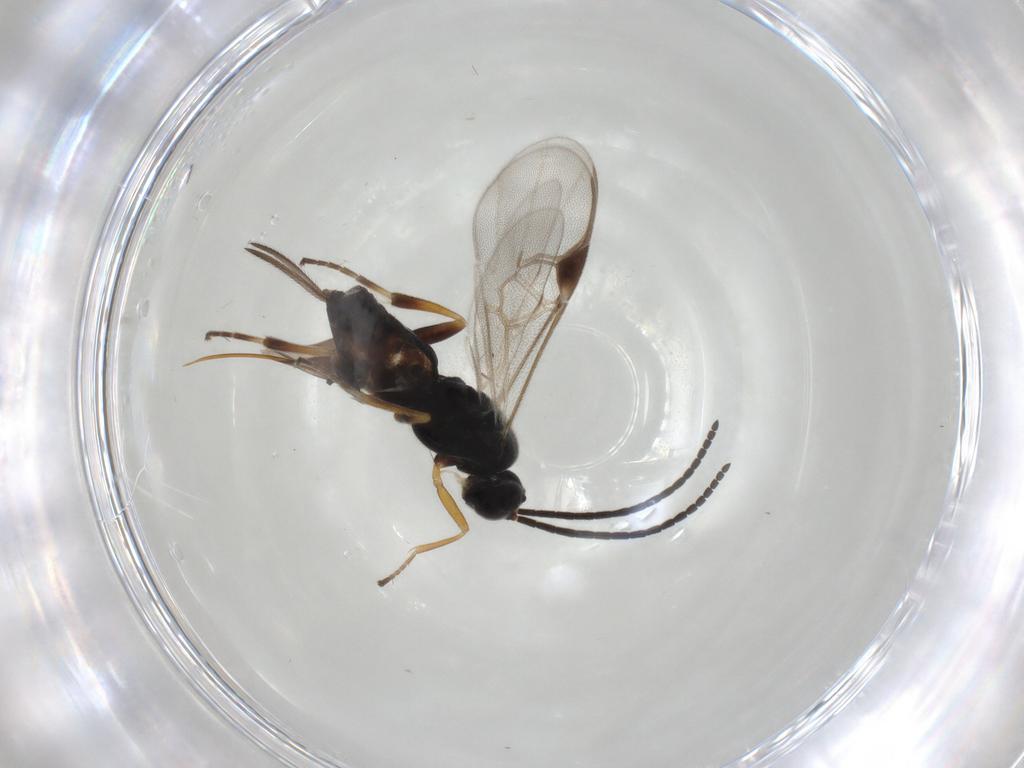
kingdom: Animalia
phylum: Arthropoda
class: Insecta
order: Hymenoptera
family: Braconidae
